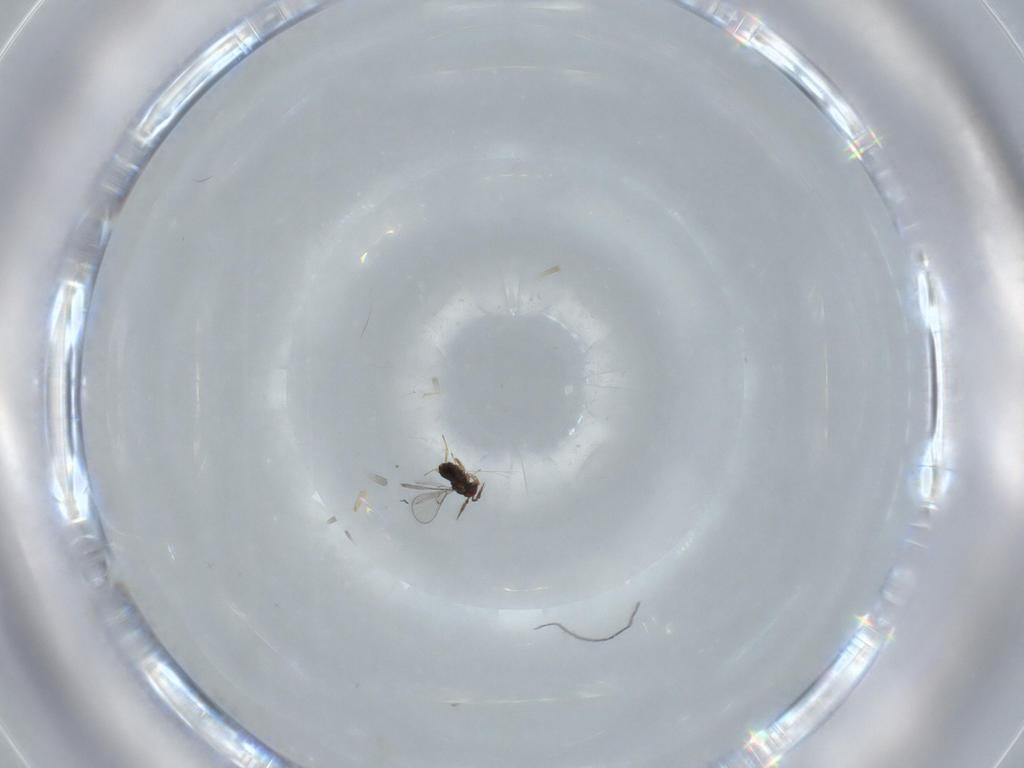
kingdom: Animalia
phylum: Arthropoda
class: Insecta
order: Hymenoptera
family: Trichogrammatidae
